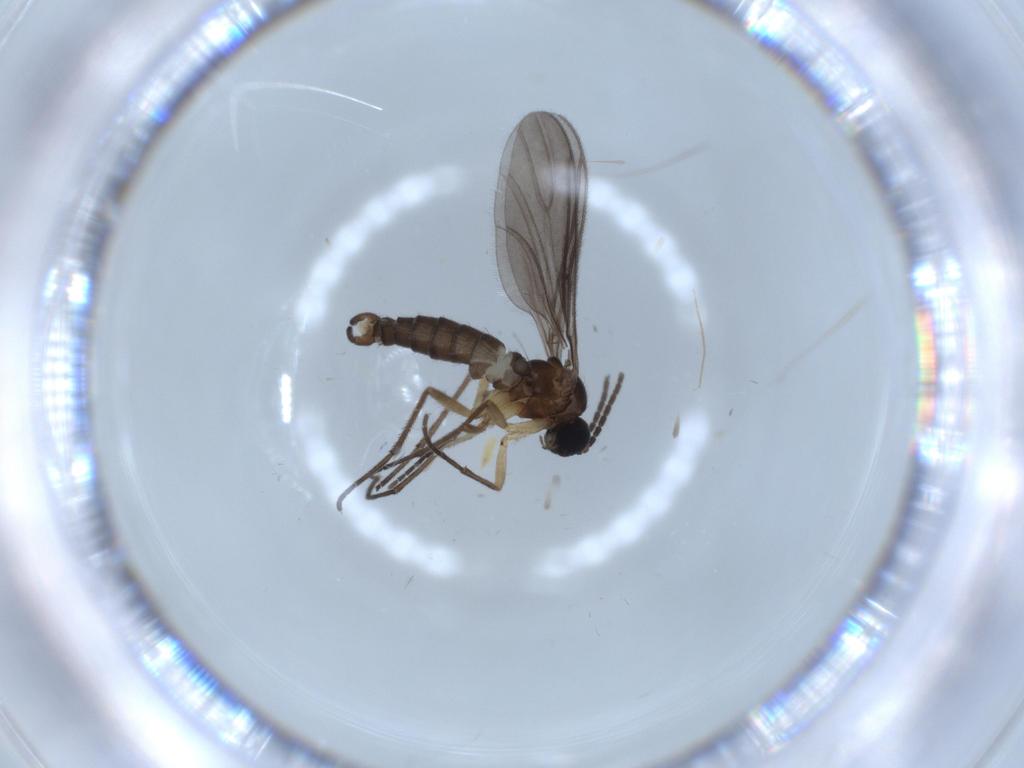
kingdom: Animalia
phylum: Arthropoda
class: Insecta
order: Diptera
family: Sciaridae
